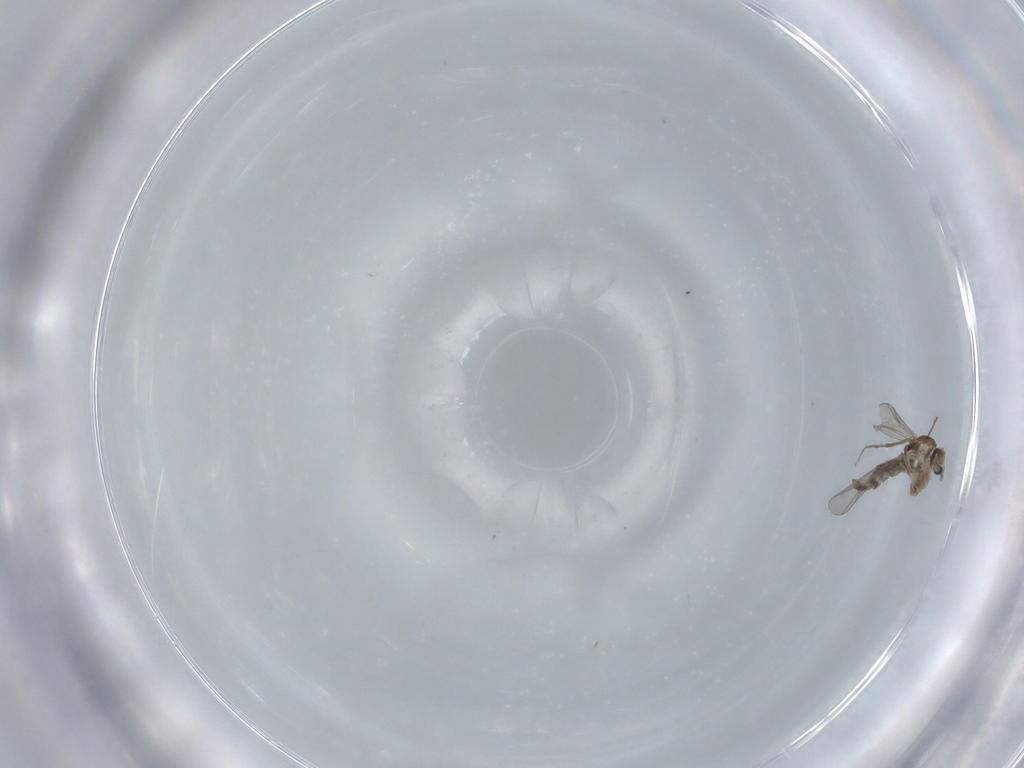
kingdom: Animalia
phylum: Arthropoda
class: Insecta
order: Diptera
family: Chironomidae
